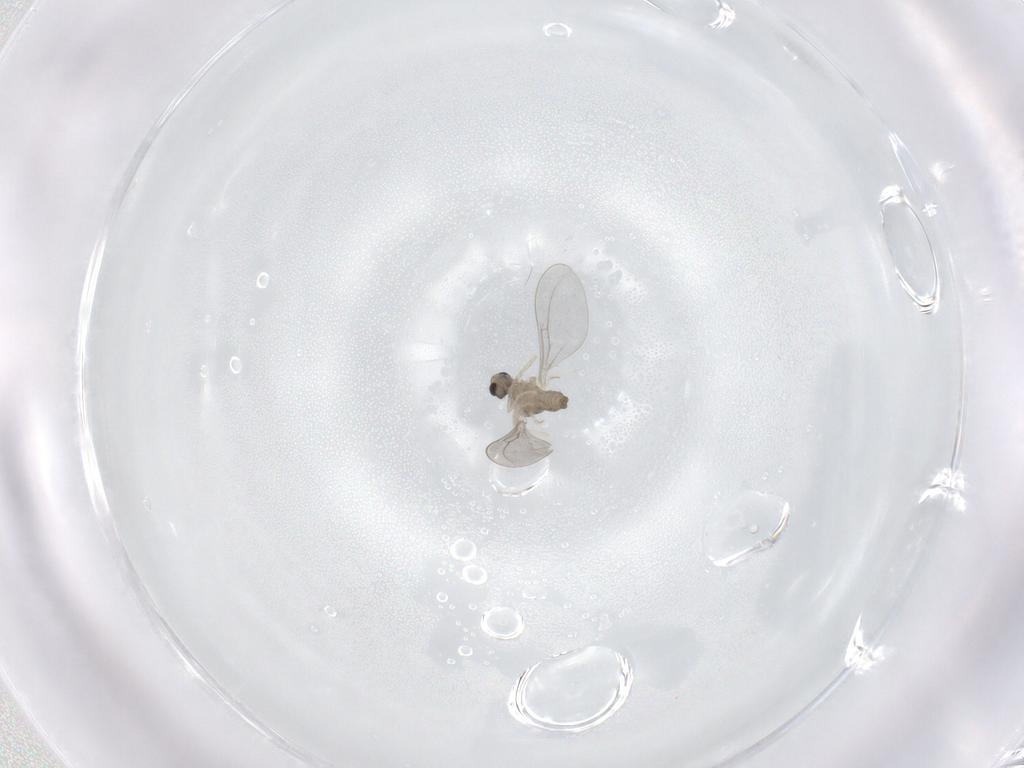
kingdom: Animalia
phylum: Arthropoda
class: Insecta
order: Diptera
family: Cecidomyiidae
